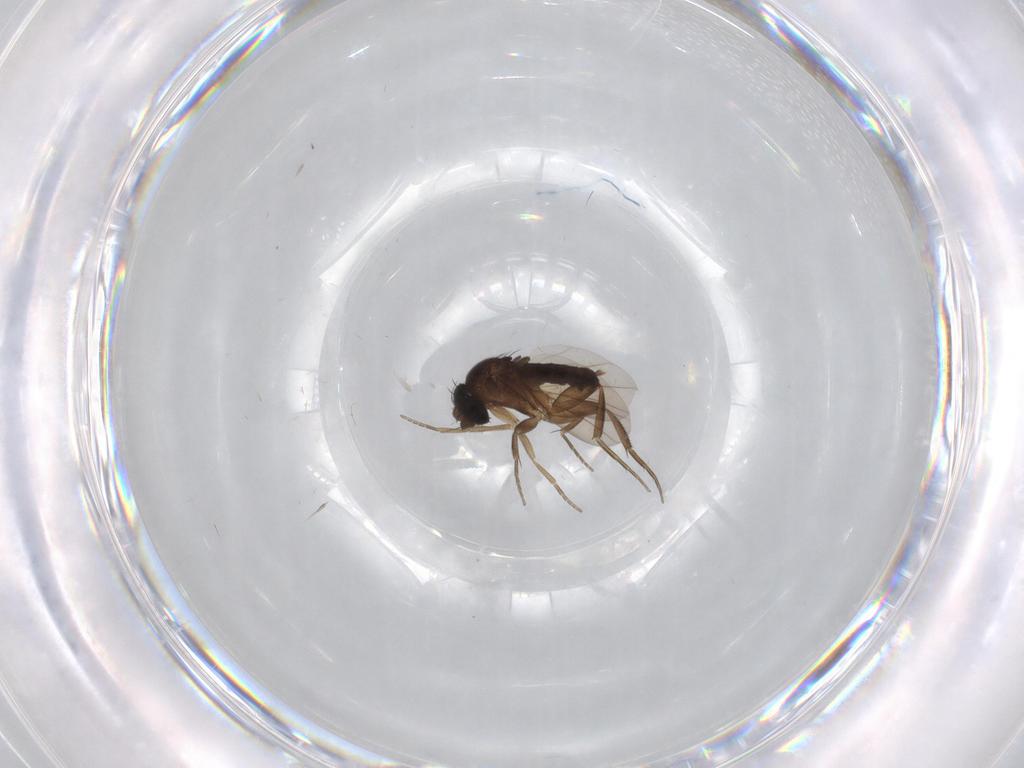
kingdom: Animalia
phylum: Arthropoda
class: Insecta
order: Diptera
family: Phoridae
